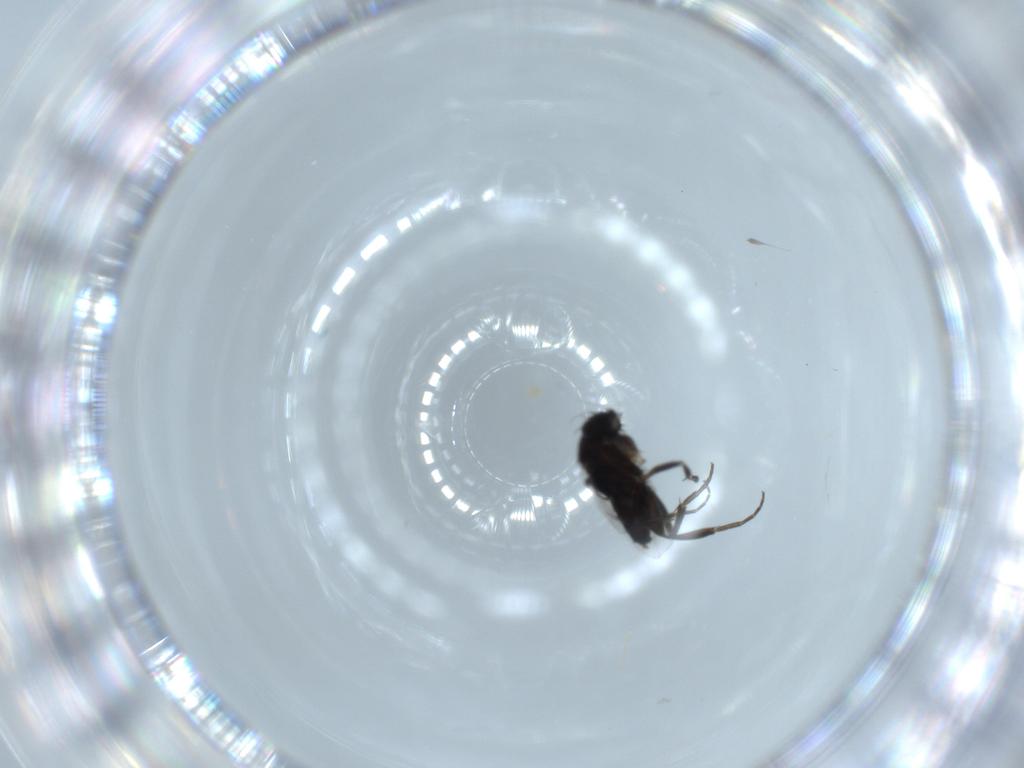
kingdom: Animalia
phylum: Arthropoda
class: Insecta
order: Diptera
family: Phoridae
